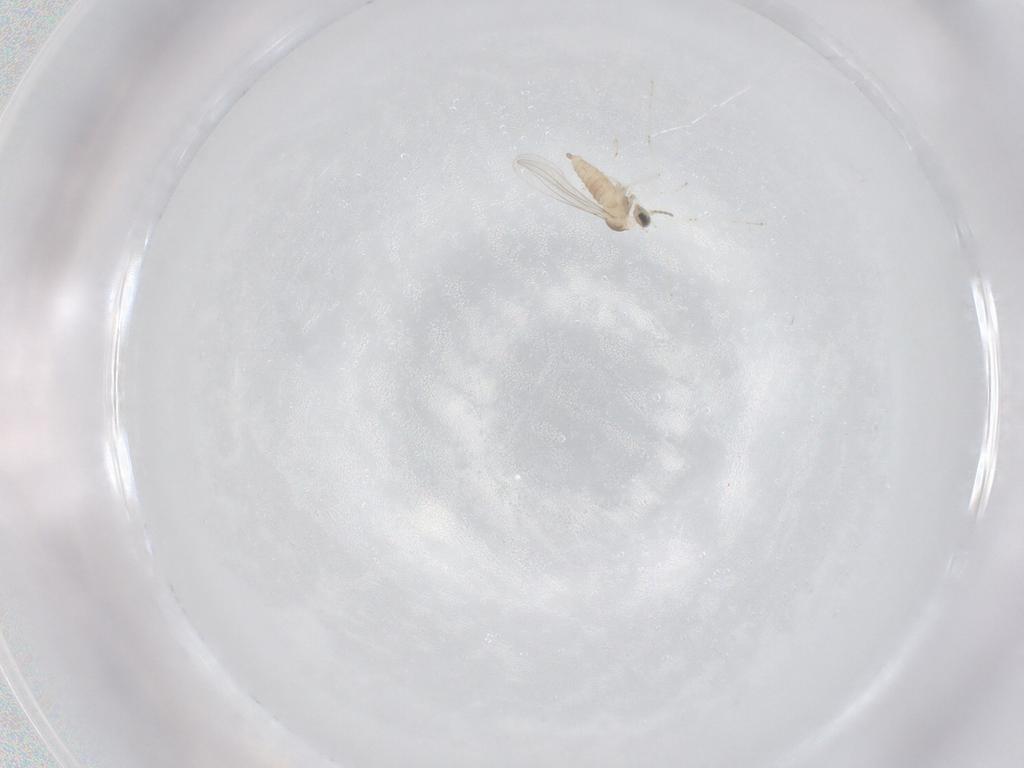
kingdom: Animalia
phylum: Arthropoda
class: Insecta
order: Diptera
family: Cecidomyiidae
